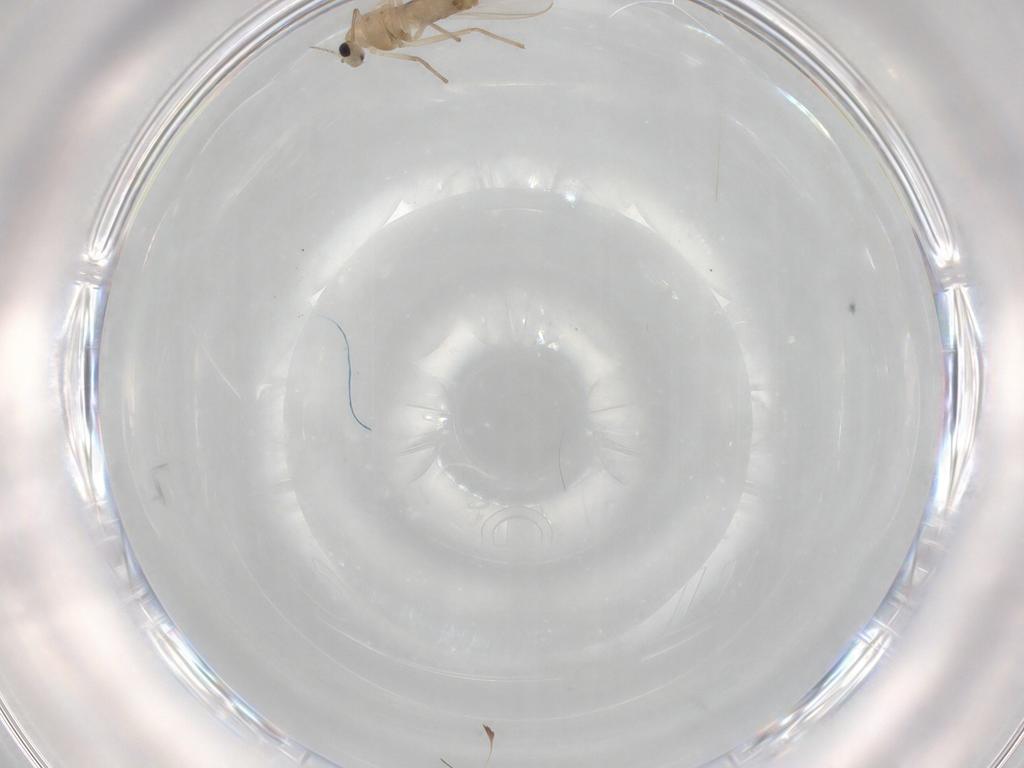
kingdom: Animalia
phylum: Arthropoda
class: Insecta
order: Diptera
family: Chironomidae
